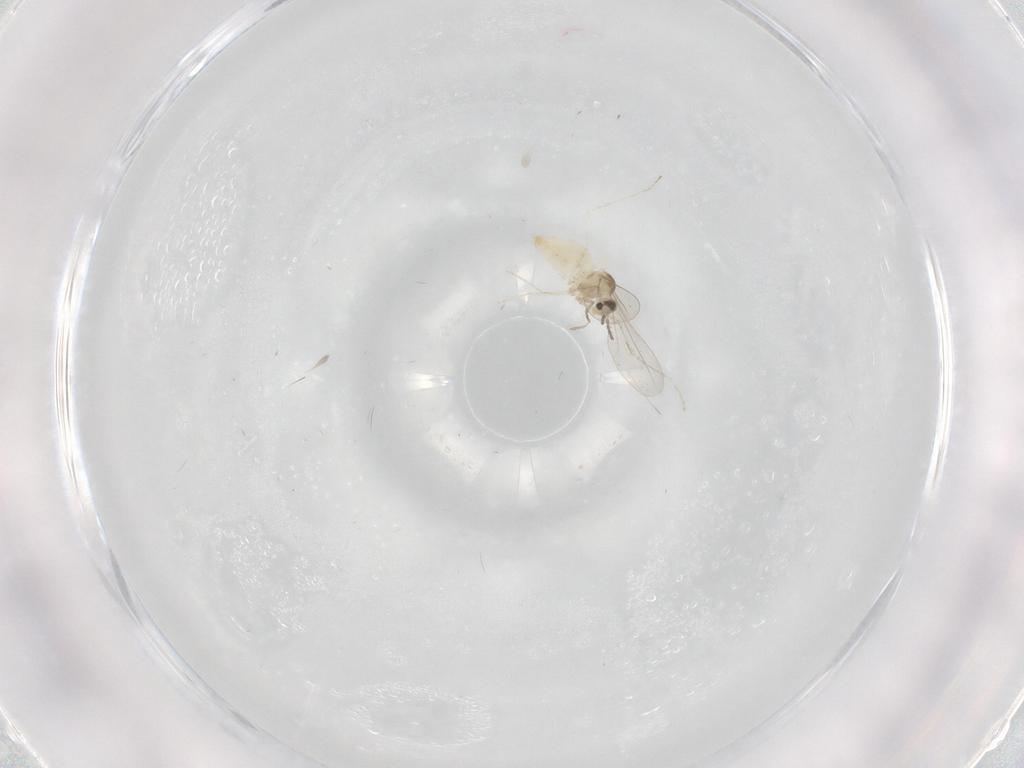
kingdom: Animalia
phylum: Arthropoda
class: Insecta
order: Diptera
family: Cecidomyiidae
